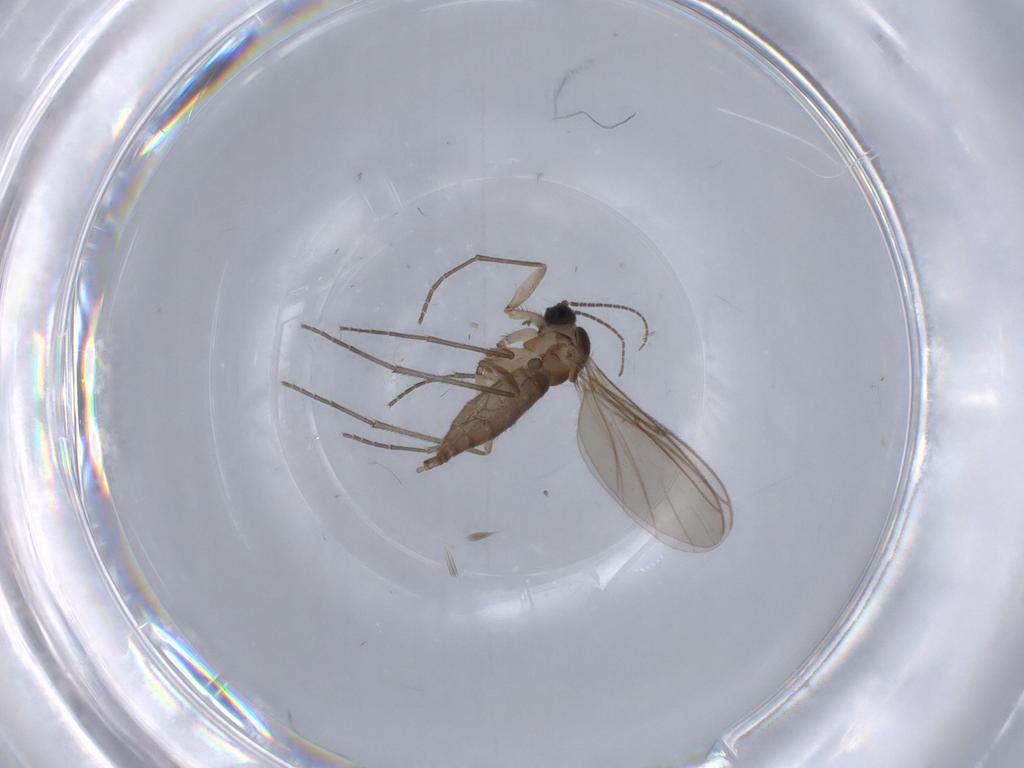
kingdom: Animalia
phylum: Arthropoda
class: Insecta
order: Diptera
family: Sciaridae
